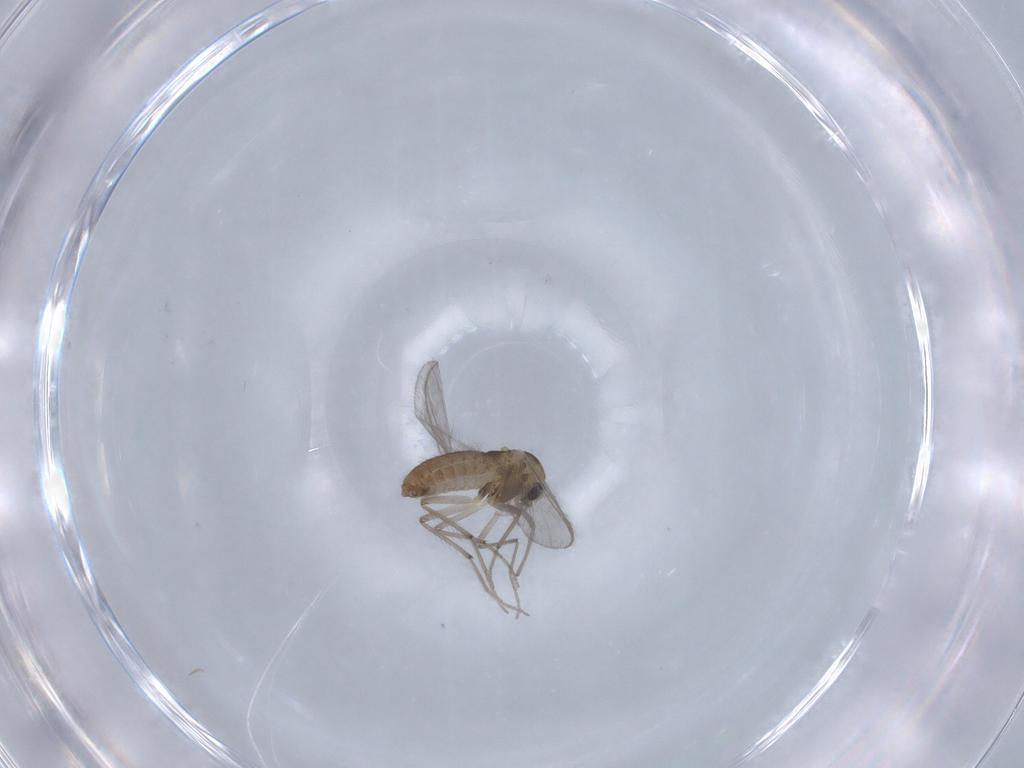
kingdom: Animalia
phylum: Arthropoda
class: Insecta
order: Diptera
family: Chironomidae
